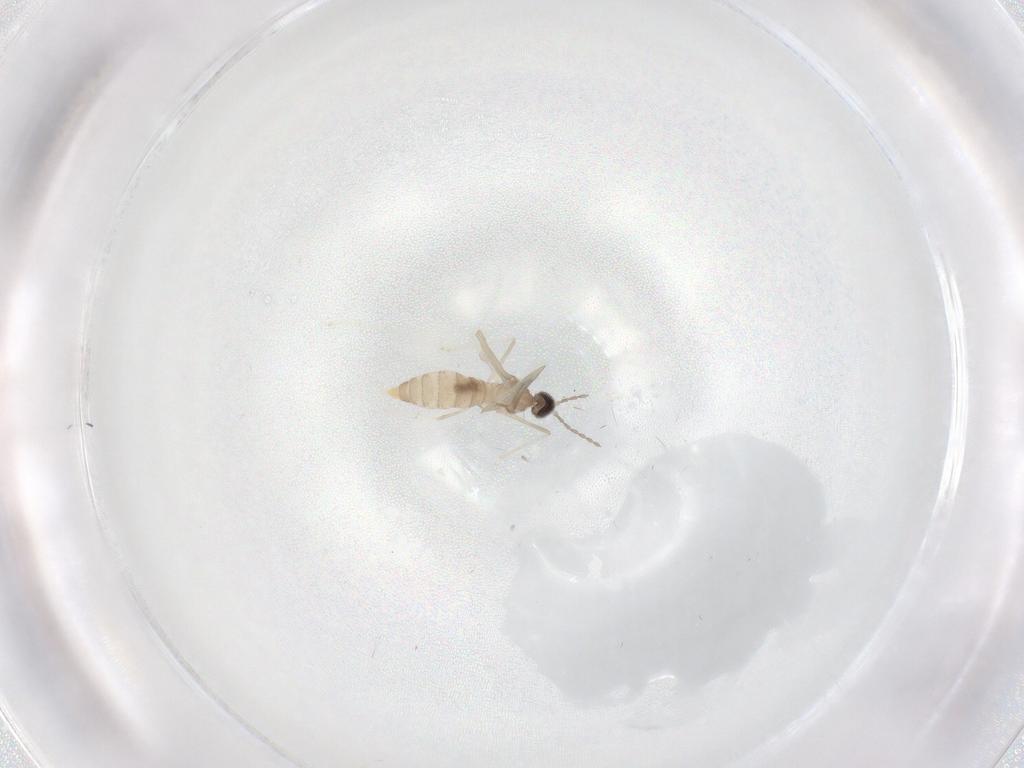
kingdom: Animalia
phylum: Arthropoda
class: Insecta
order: Diptera
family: Cecidomyiidae
